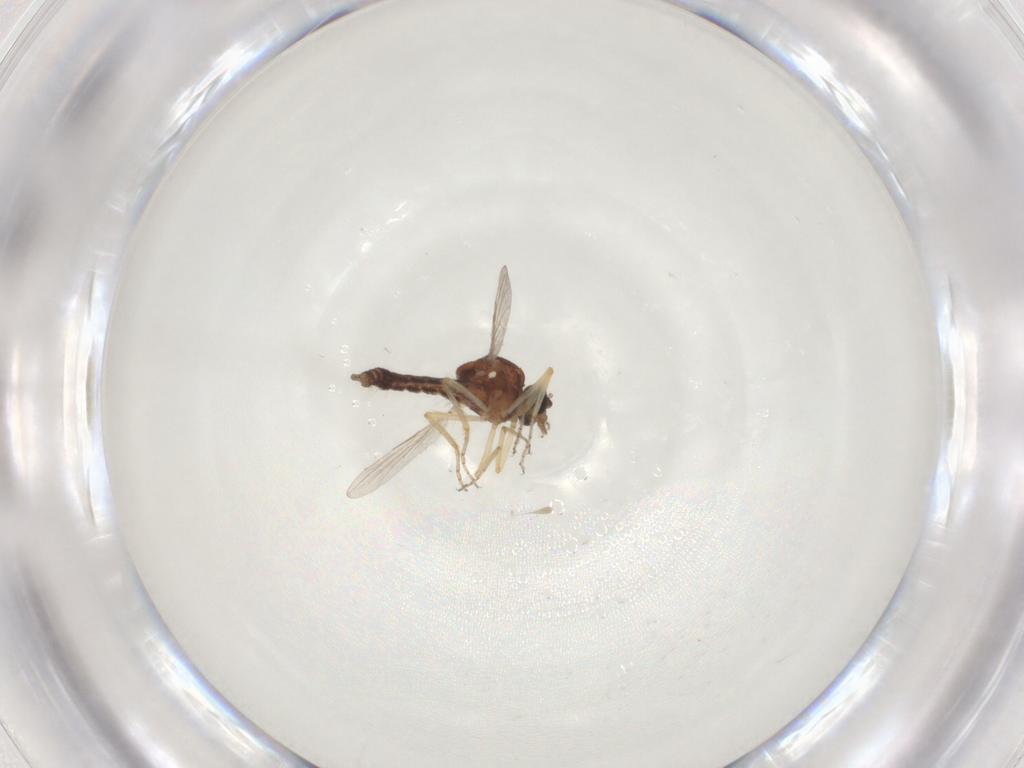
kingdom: Animalia
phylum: Arthropoda
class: Insecta
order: Diptera
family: Ceratopogonidae
